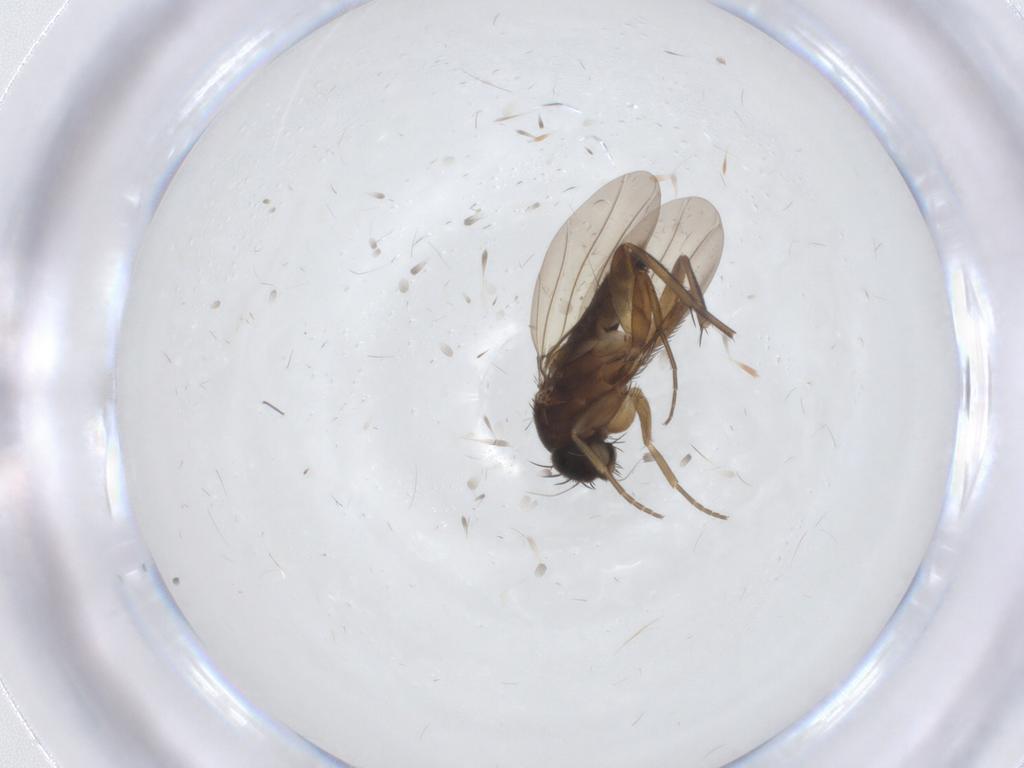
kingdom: Animalia
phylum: Arthropoda
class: Insecta
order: Diptera
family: Phoridae
